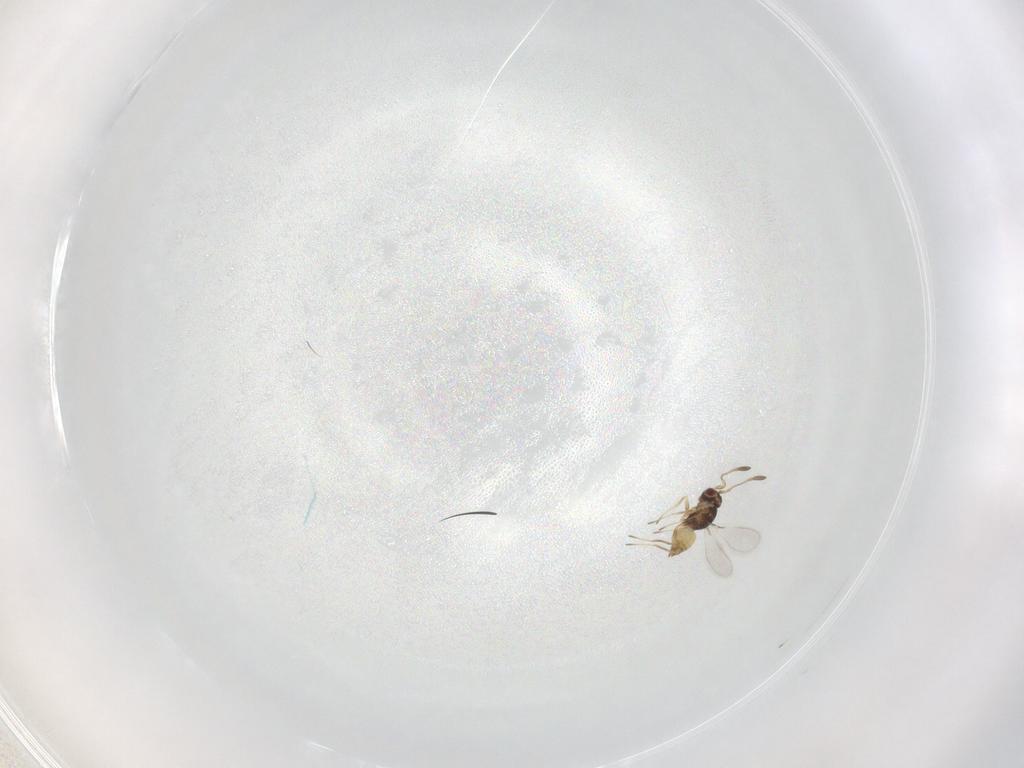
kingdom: Animalia
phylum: Arthropoda
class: Insecta
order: Hymenoptera
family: Mymaridae
